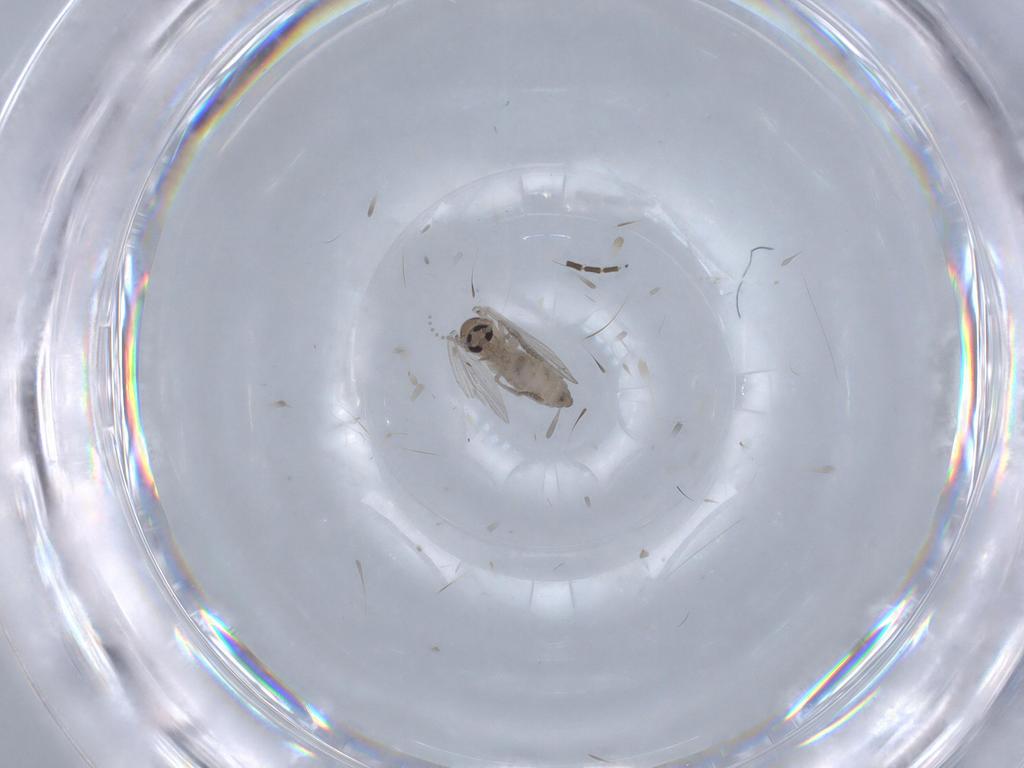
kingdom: Animalia
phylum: Arthropoda
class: Insecta
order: Diptera
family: Psychodidae
